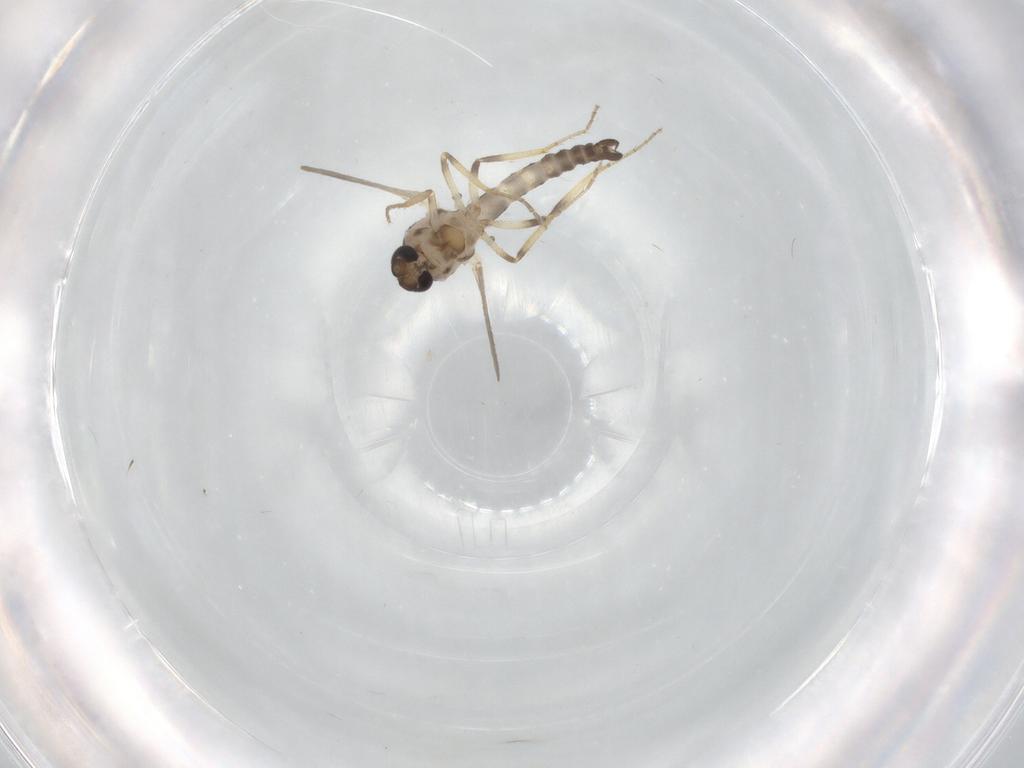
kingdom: Animalia
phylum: Arthropoda
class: Insecta
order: Diptera
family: Ceratopogonidae
